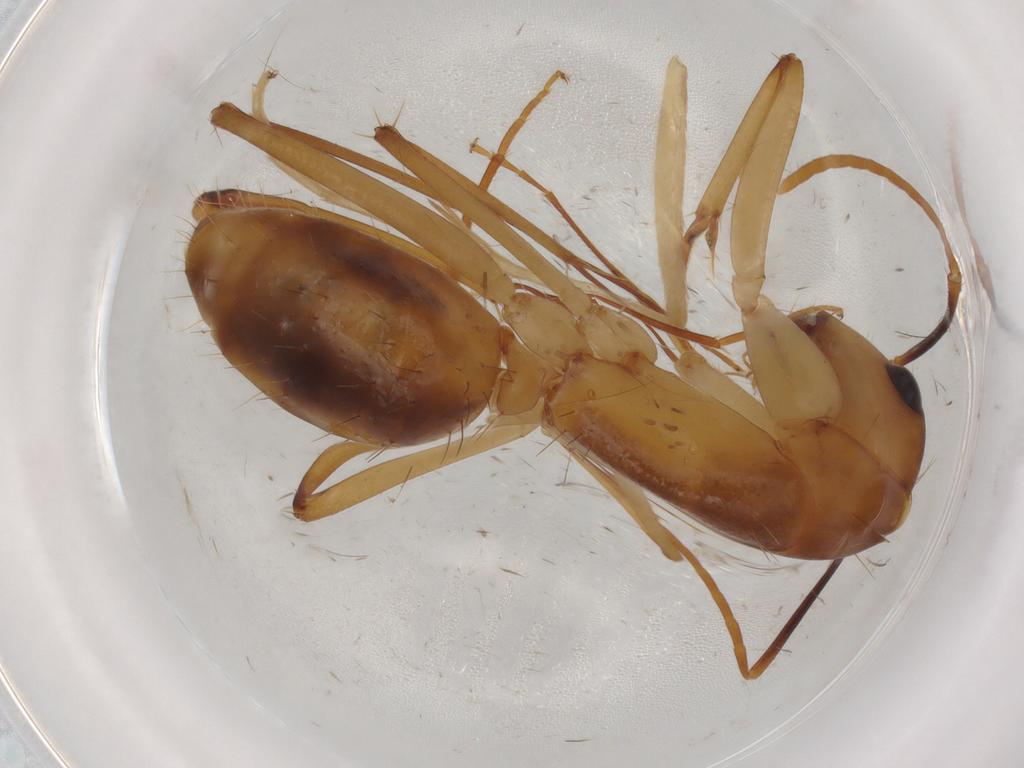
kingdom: Animalia
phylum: Arthropoda
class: Insecta
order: Hymenoptera
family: Formicidae
